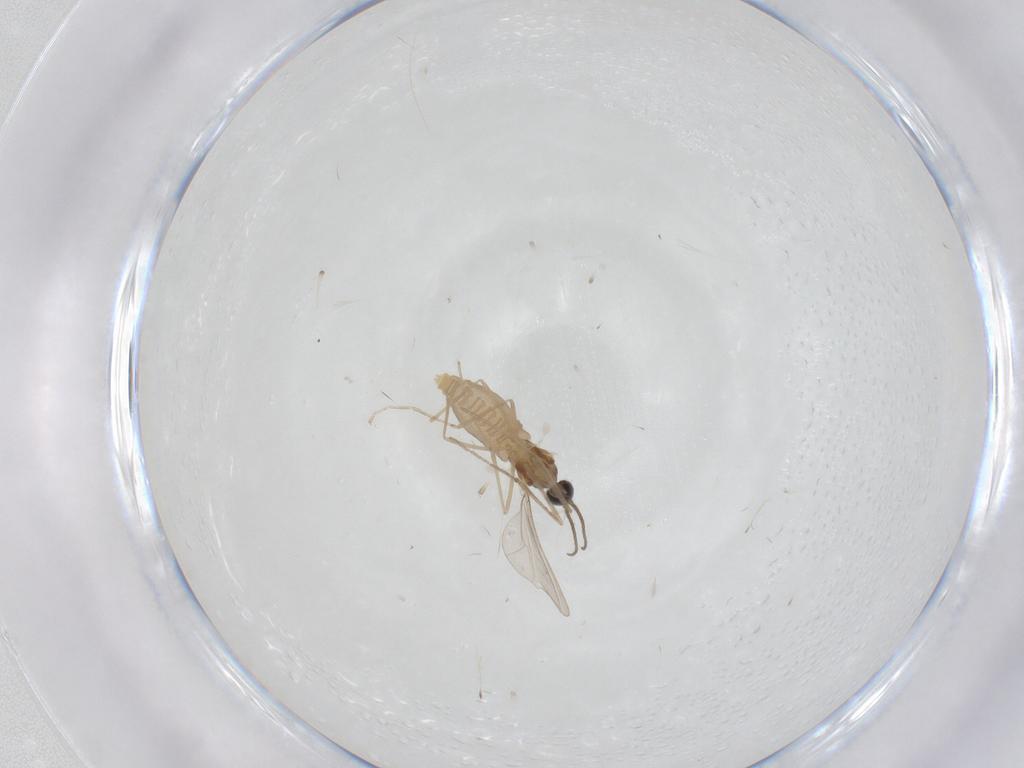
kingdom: Animalia
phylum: Arthropoda
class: Insecta
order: Diptera
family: Cecidomyiidae
